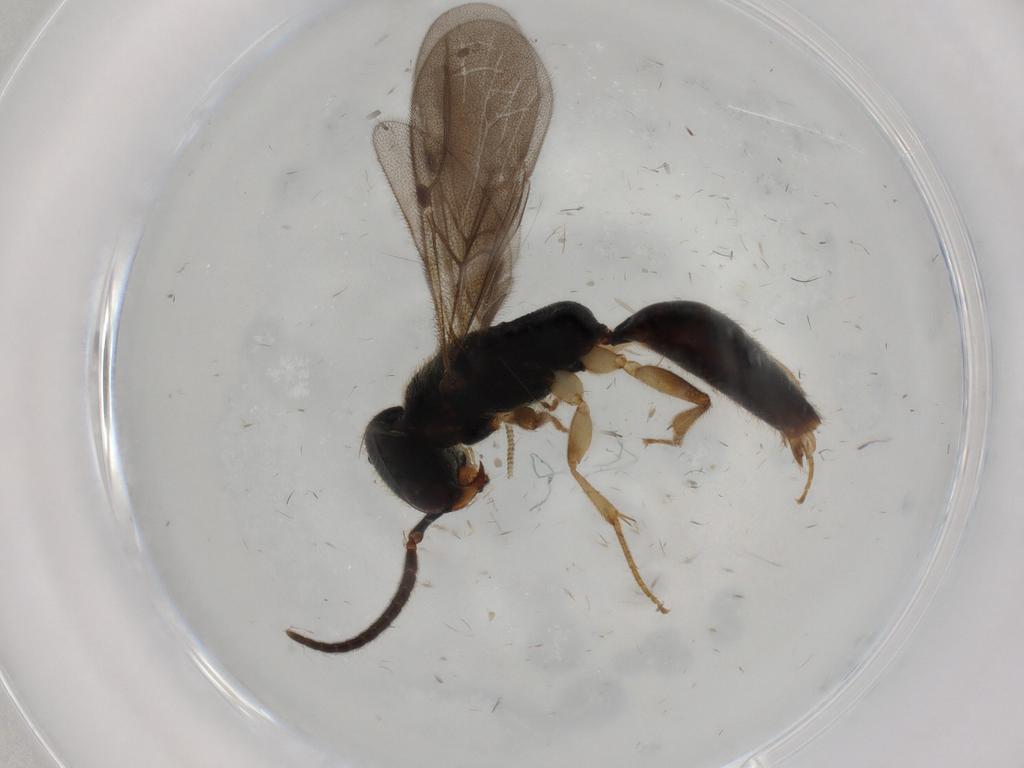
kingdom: Animalia
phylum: Arthropoda
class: Insecta
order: Hymenoptera
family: Bethylidae
